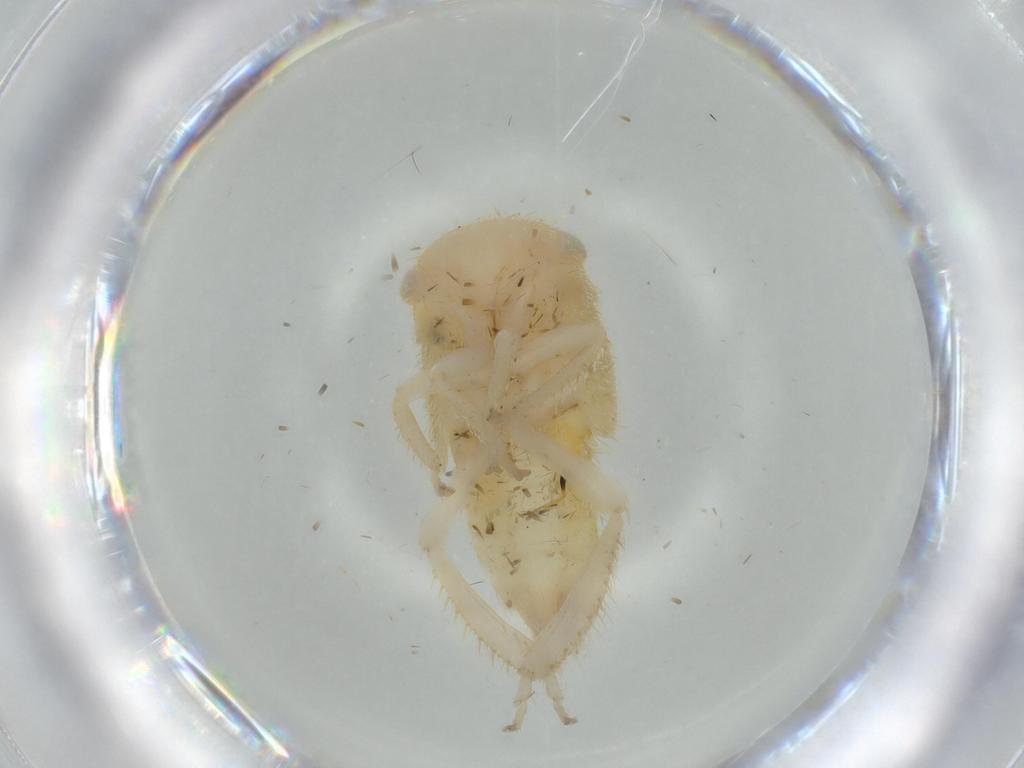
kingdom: Animalia
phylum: Arthropoda
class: Insecta
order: Hemiptera
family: Cicadellidae
